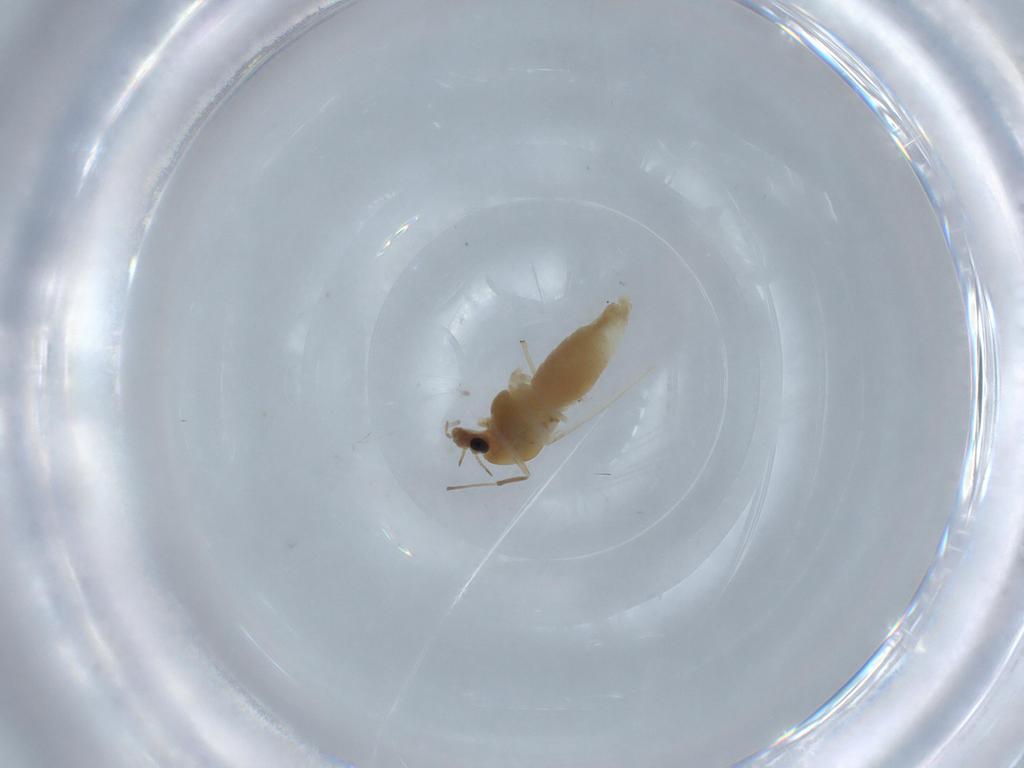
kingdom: Animalia
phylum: Arthropoda
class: Insecta
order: Diptera
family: Chironomidae
